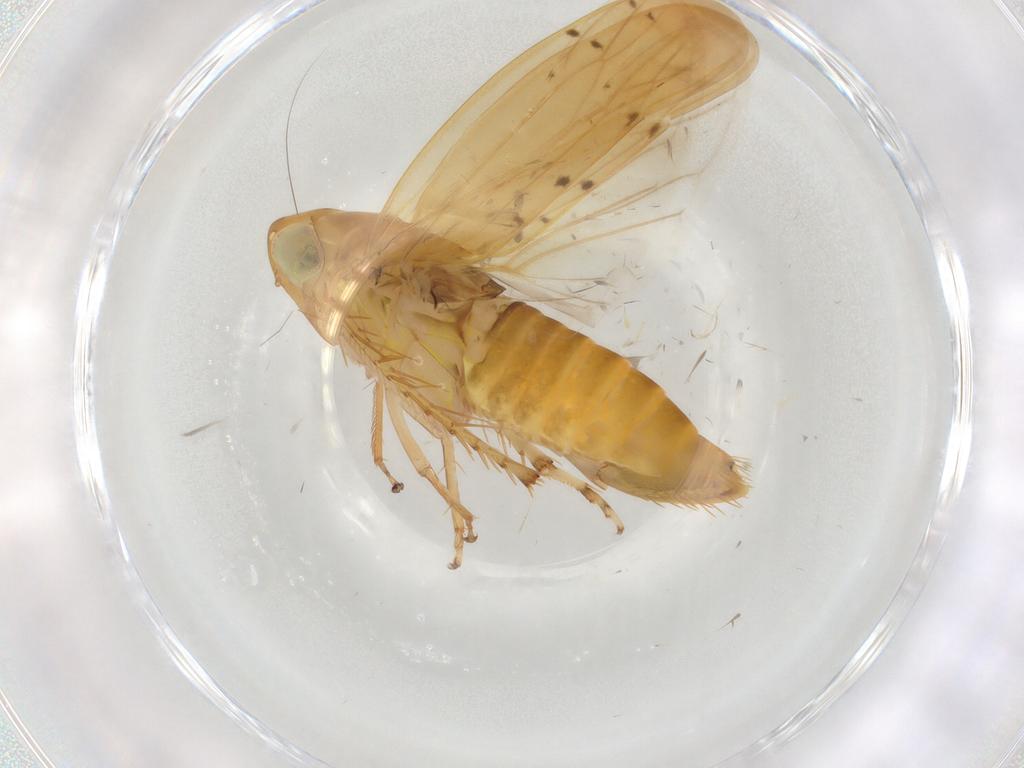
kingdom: Animalia
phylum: Arthropoda
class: Insecta
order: Hemiptera
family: Cicadellidae
